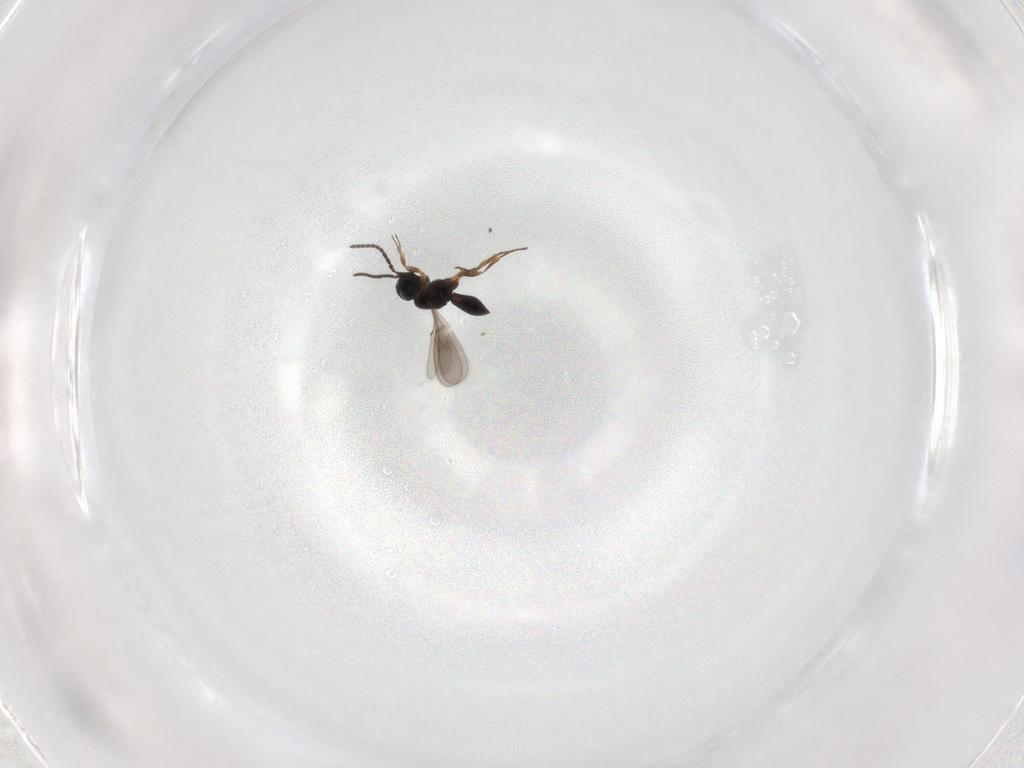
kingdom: Animalia
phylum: Arthropoda
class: Insecta
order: Hymenoptera
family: Scelionidae
